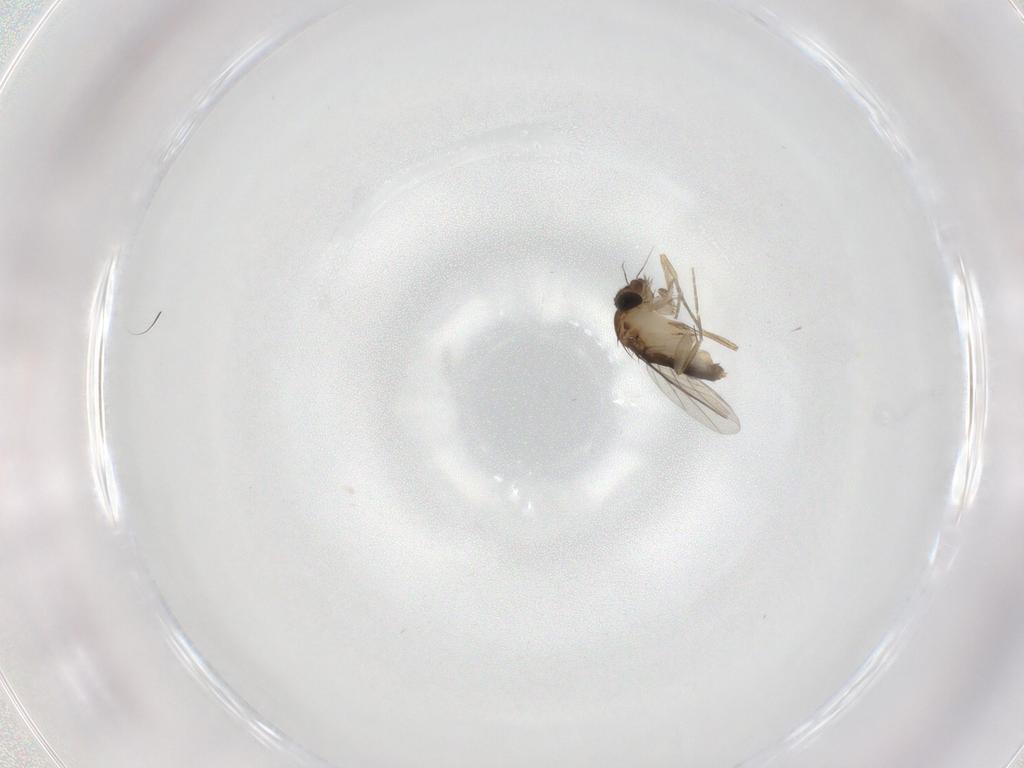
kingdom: Animalia
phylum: Arthropoda
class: Insecta
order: Diptera
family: Phoridae
